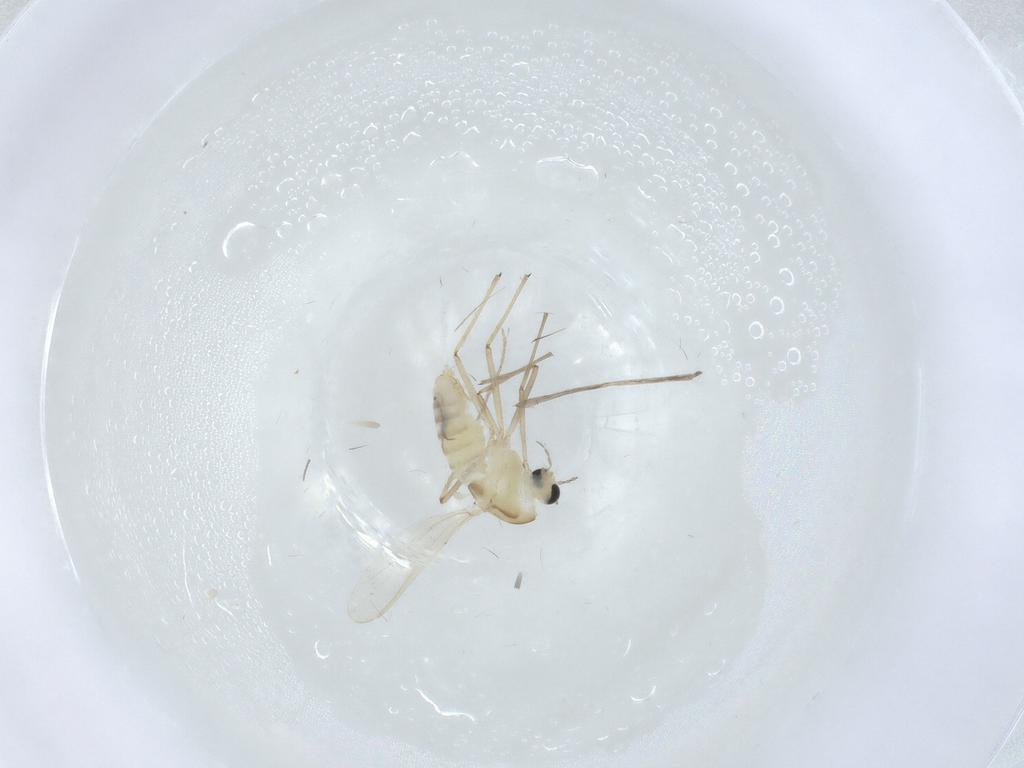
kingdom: Animalia
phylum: Arthropoda
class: Insecta
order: Diptera
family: Chironomidae
